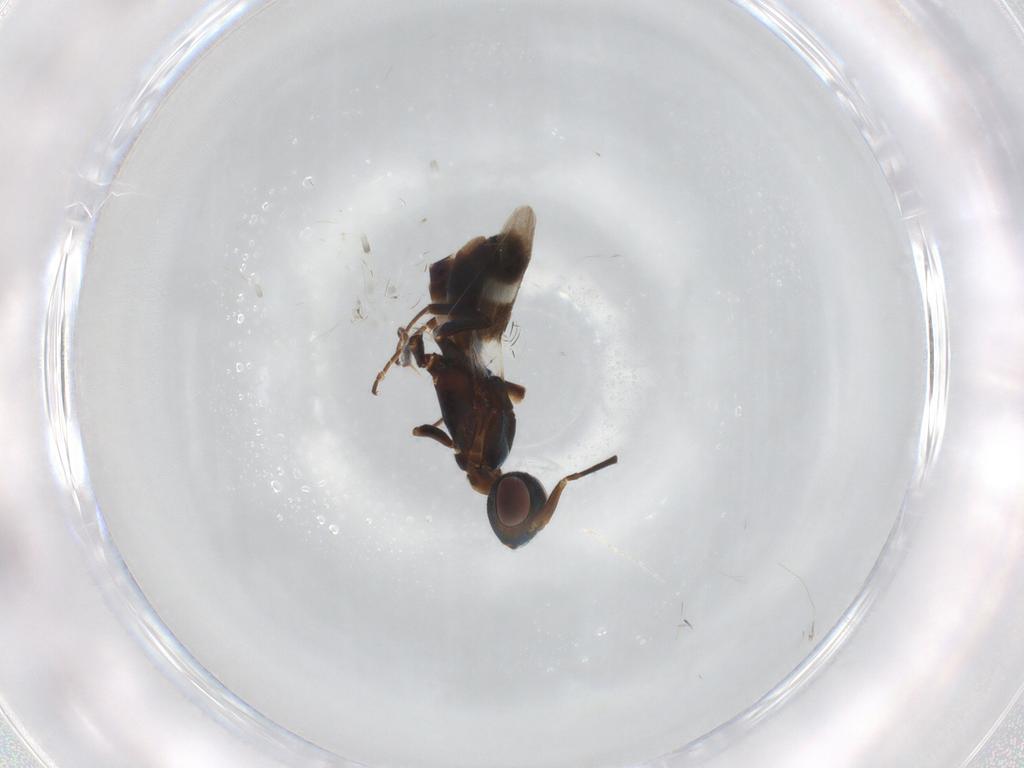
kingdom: Animalia
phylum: Arthropoda
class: Insecta
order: Hymenoptera
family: Eupelmidae
